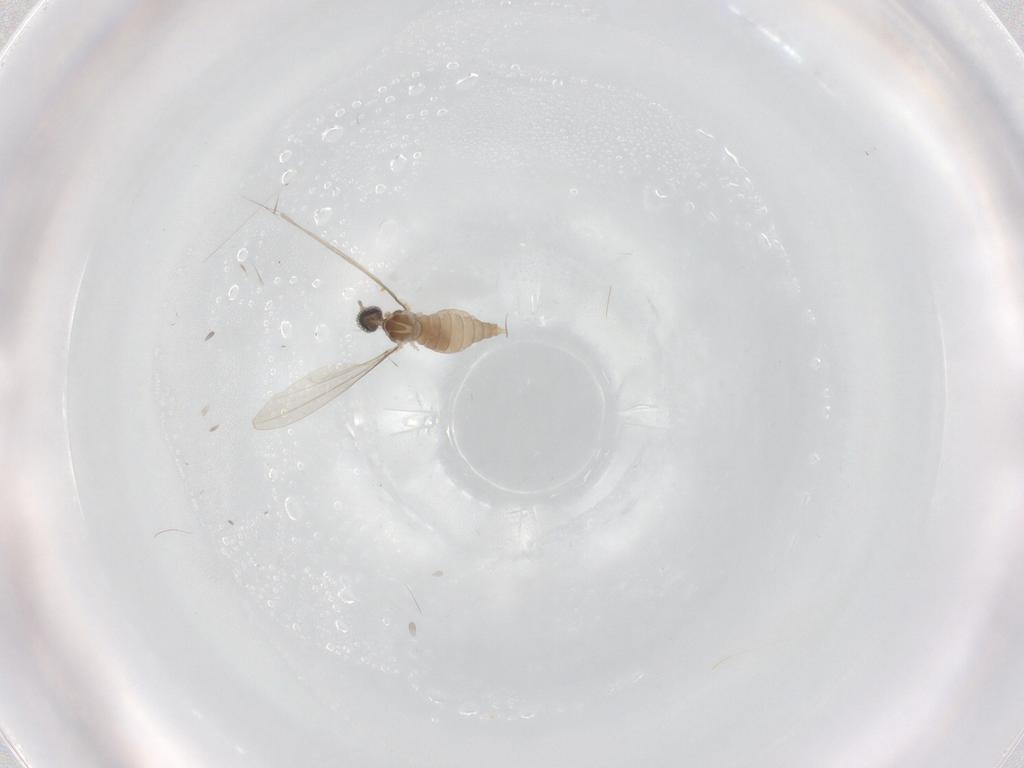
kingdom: Animalia
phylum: Arthropoda
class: Insecta
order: Diptera
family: Cecidomyiidae
